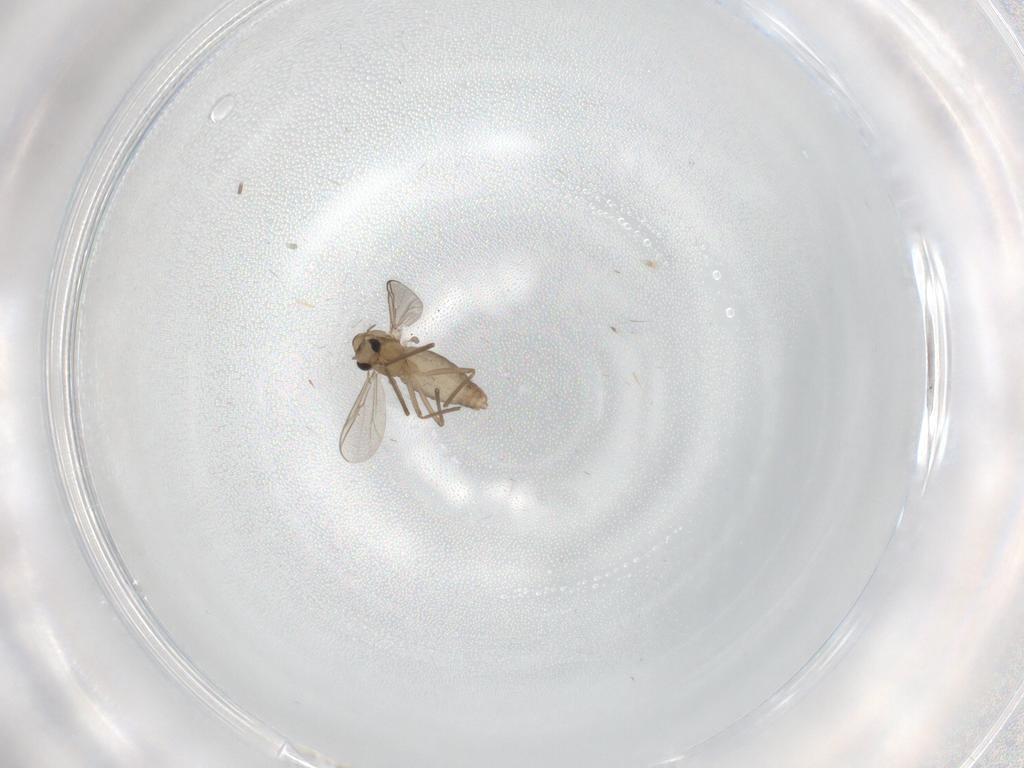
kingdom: Animalia
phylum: Arthropoda
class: Insecta
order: Diptera
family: Chironomidae
